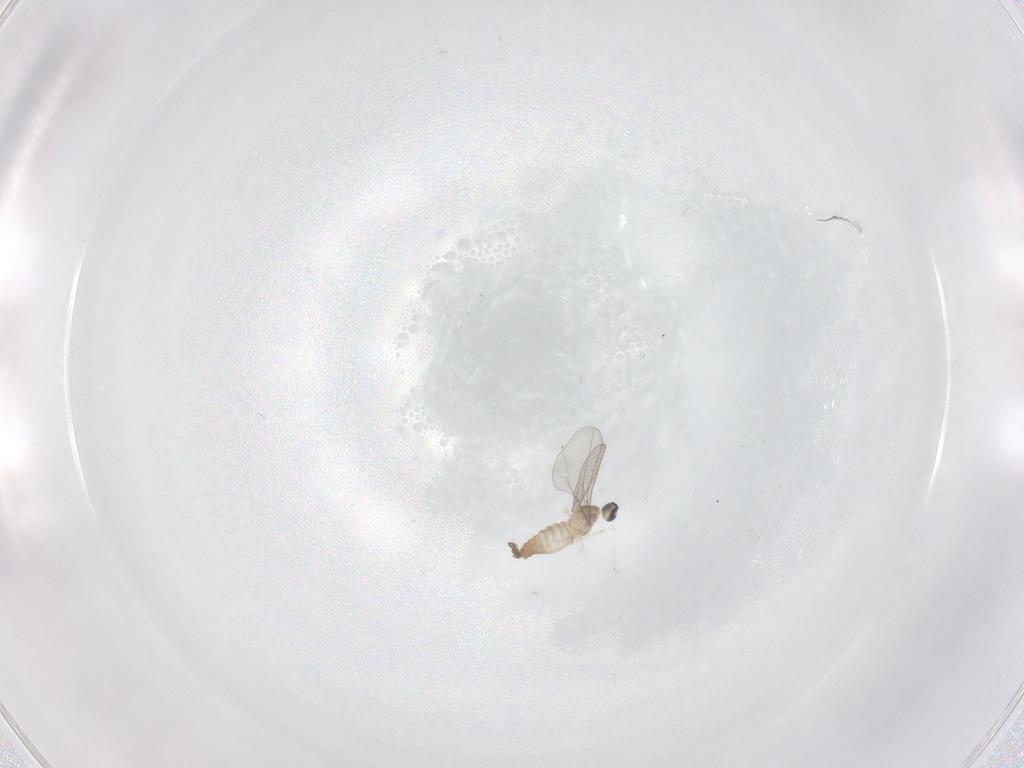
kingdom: Animalia
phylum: Arthropoda
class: Insecta
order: Diptera
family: Cecidomyiidae
